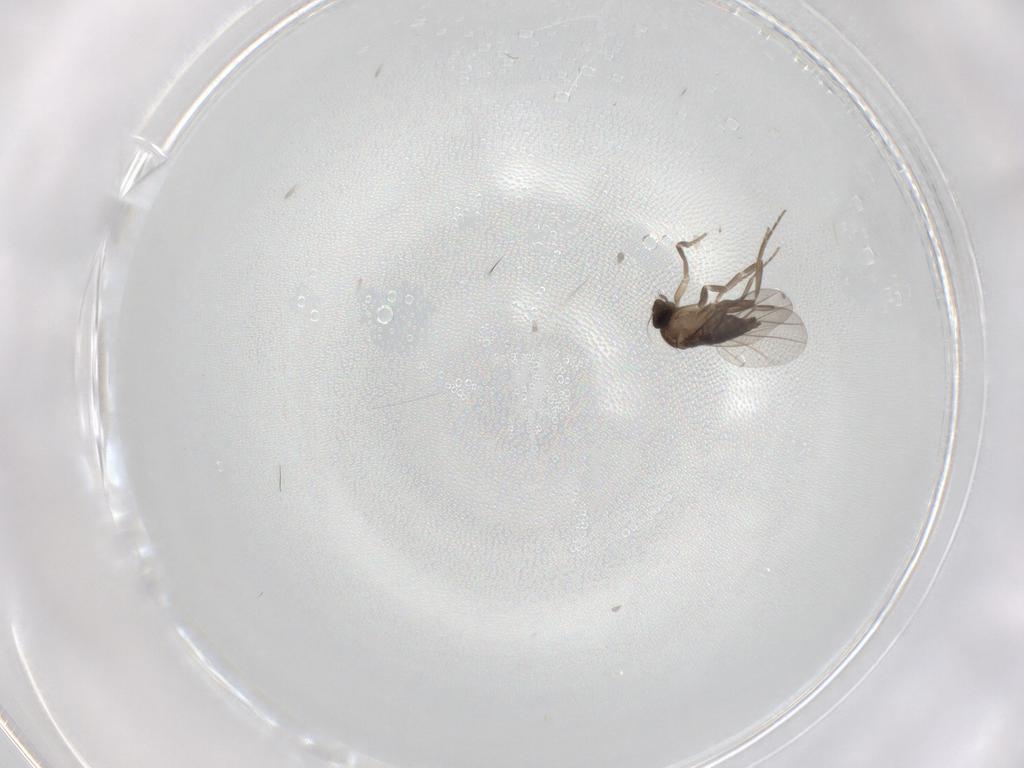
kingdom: Animalia
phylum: Arthropoda
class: Insecta
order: Diptera
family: Phoridae
